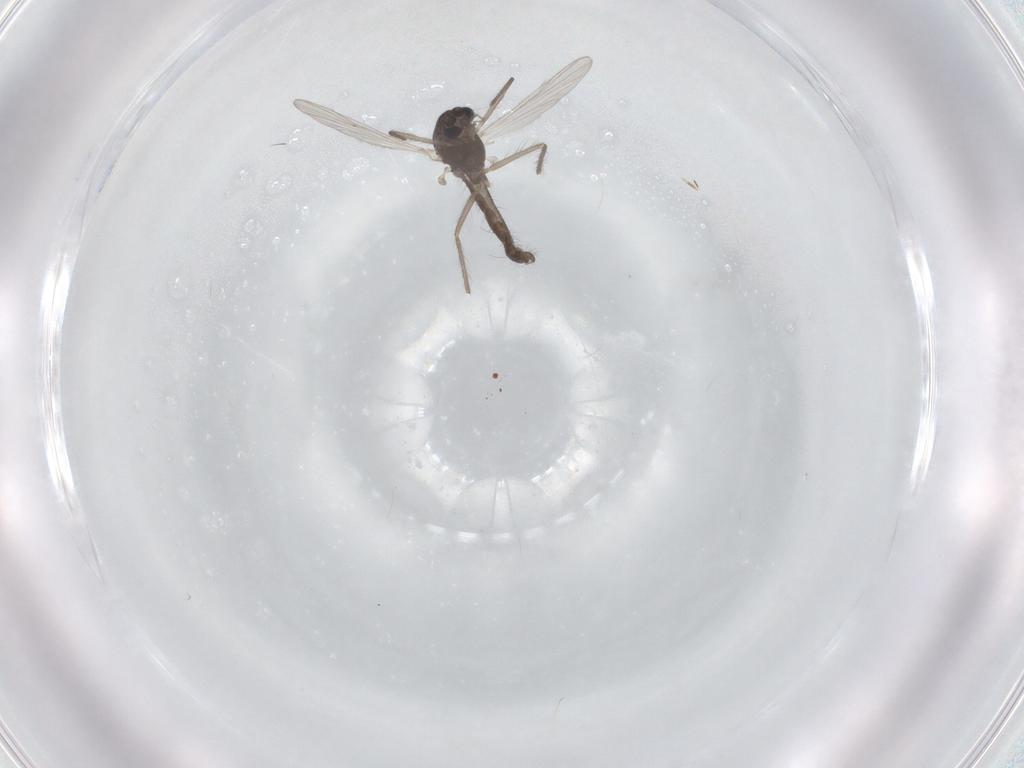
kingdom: Animalia
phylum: Arthropoda
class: Insecta
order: Diptera
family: Chironomidae
